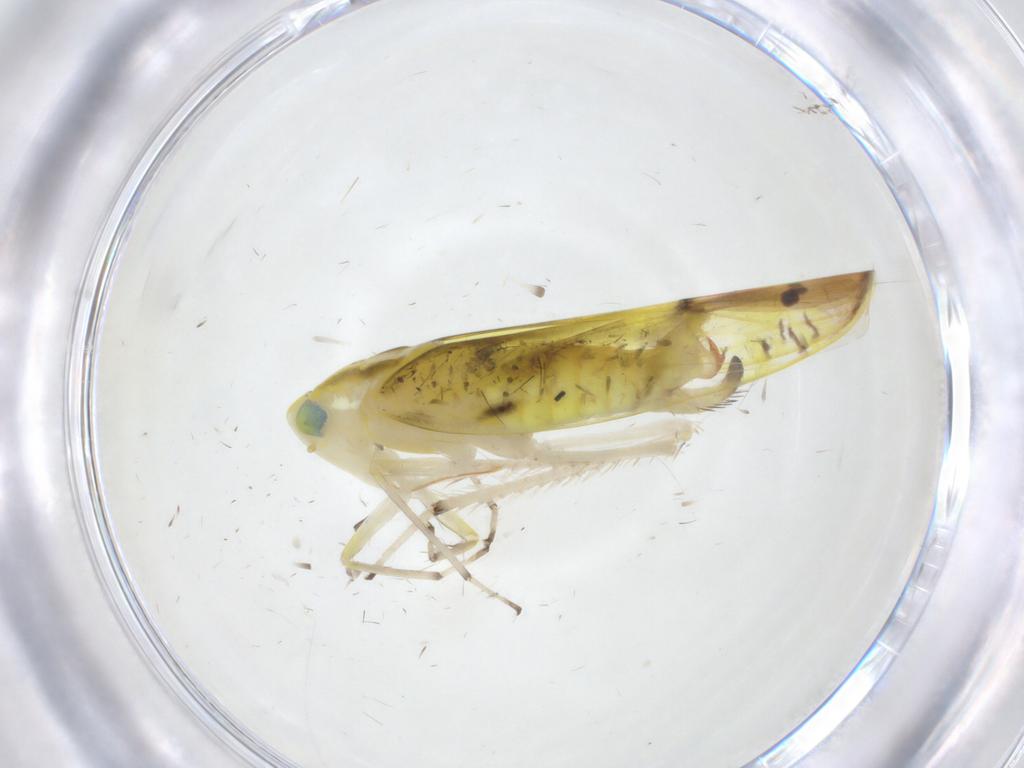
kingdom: Animalia
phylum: Arthropoda
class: Insecta
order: Hemiptera
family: Cicadellidae
